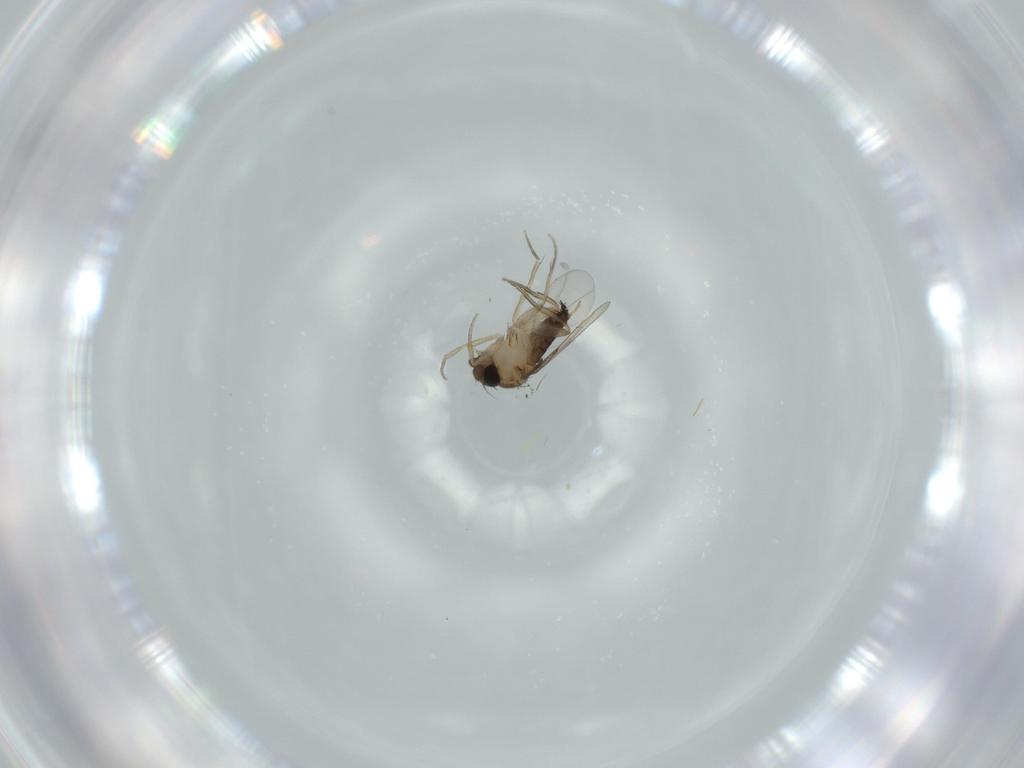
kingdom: Animalia
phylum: Arthropoda
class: Insecta
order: Diptera
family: Phoridae
